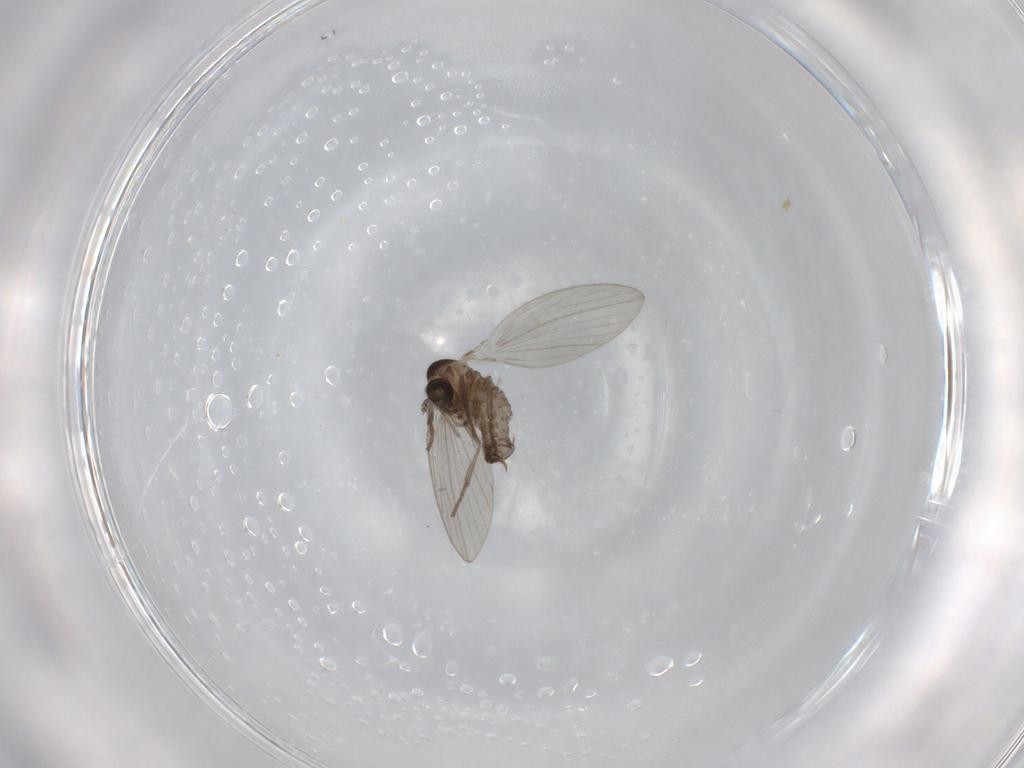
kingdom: Animalia
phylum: Arthropoda
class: Insecta
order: Diptera
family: Psychodidae
